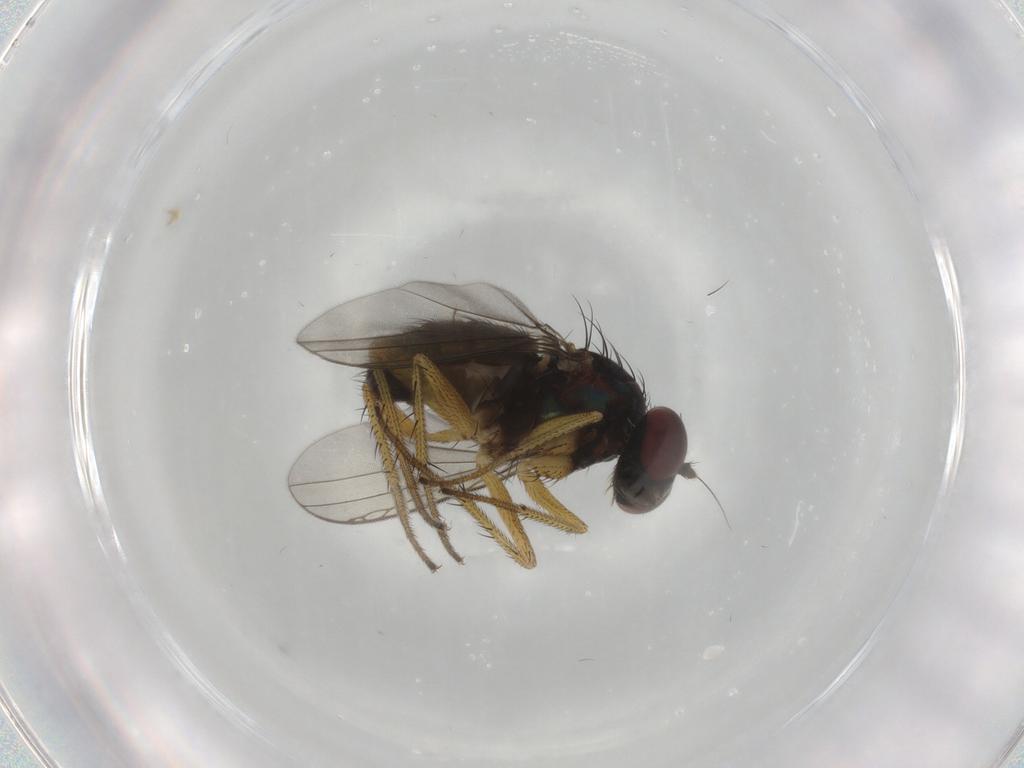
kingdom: Animalia
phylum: Arthropoda
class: Insecta
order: Diptera
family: Dolichopodidae
